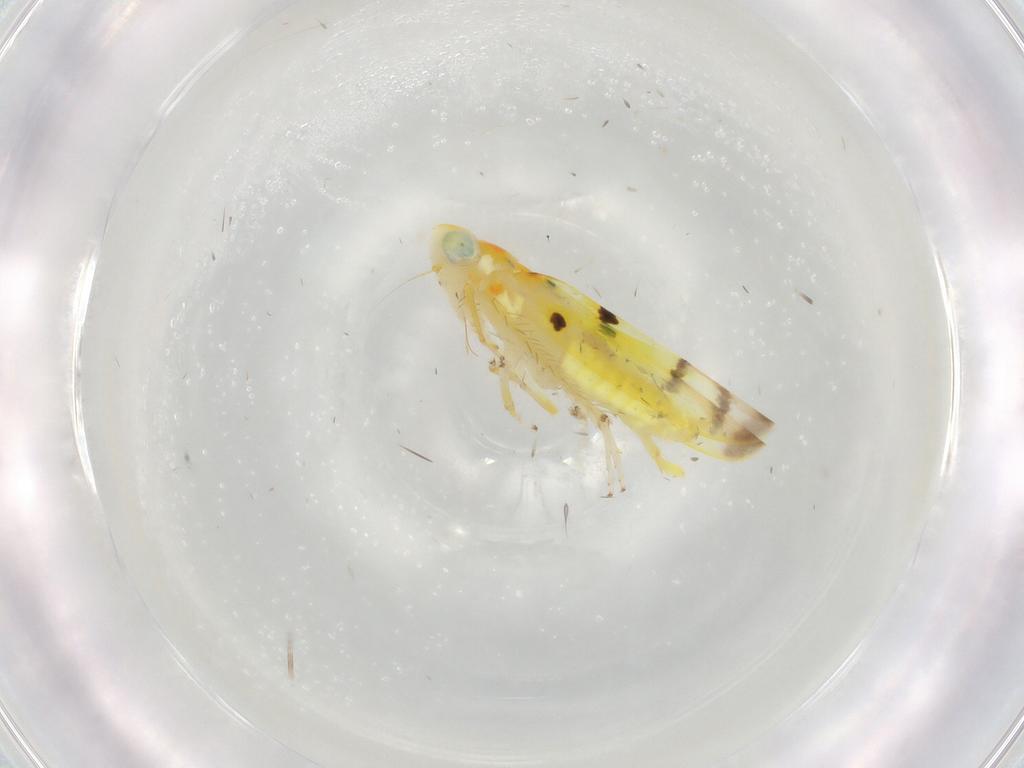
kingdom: Animalia
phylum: Arthropoda
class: Insecta
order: Hemiptera
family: Cicadellidae
